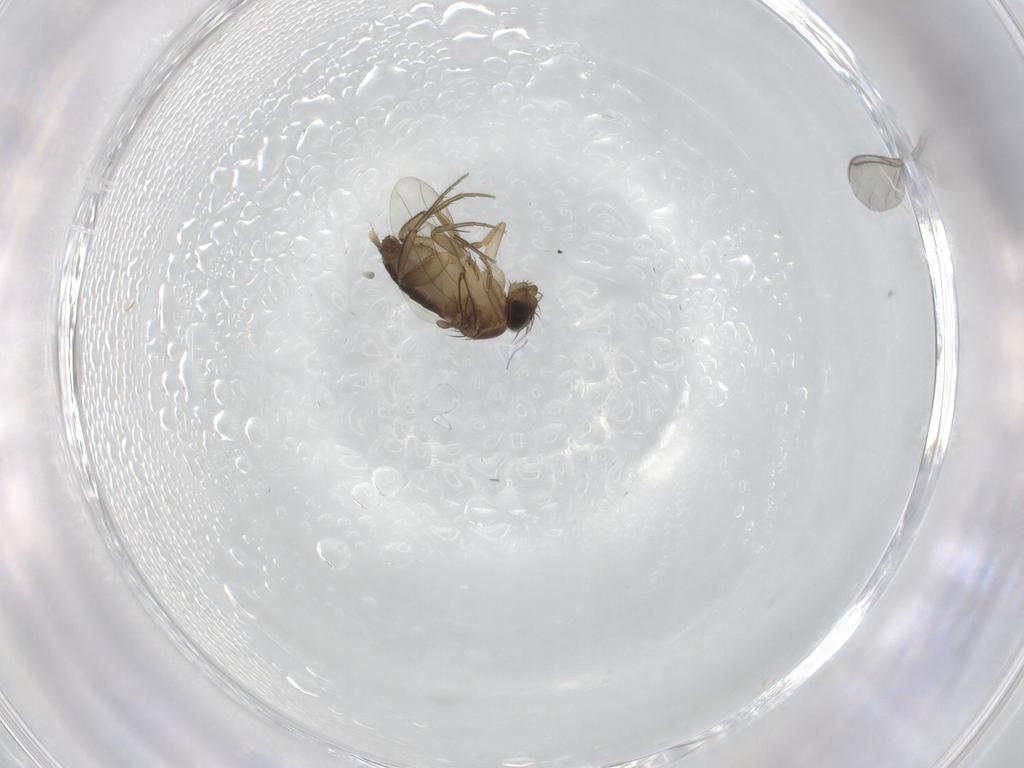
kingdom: Animalia
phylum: Arthropoda
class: Insecta
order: Diptera
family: Phoridae
